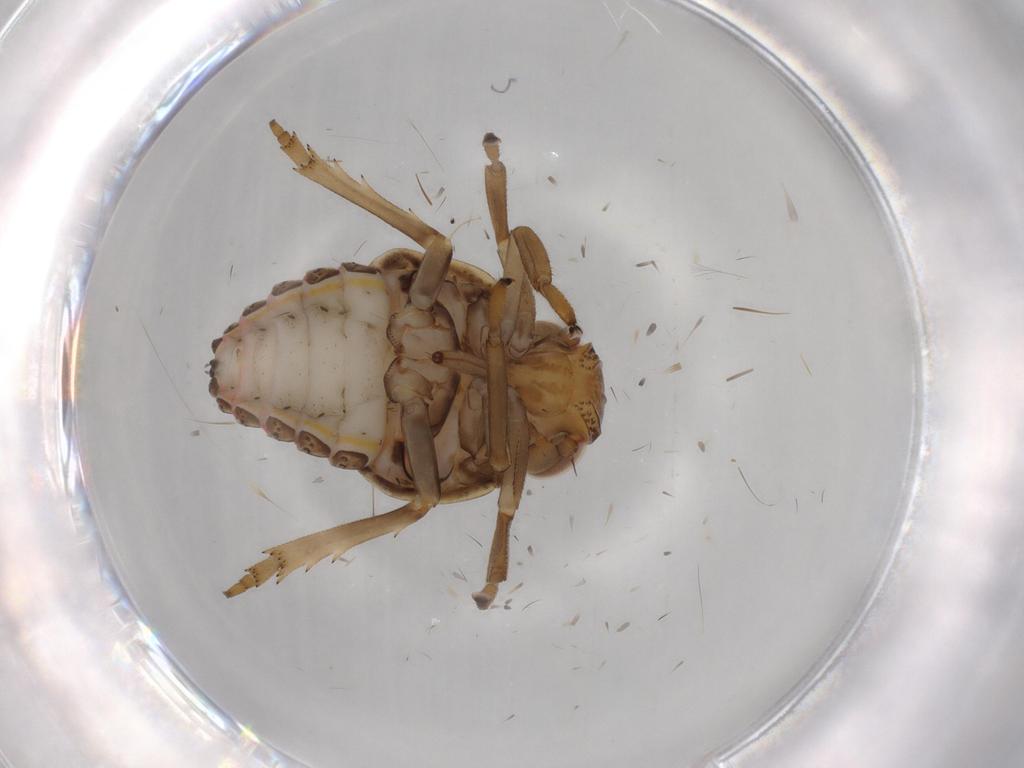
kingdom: Animalia
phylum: Arthropoda
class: Insecta
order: Hemiptera
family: Issidae
